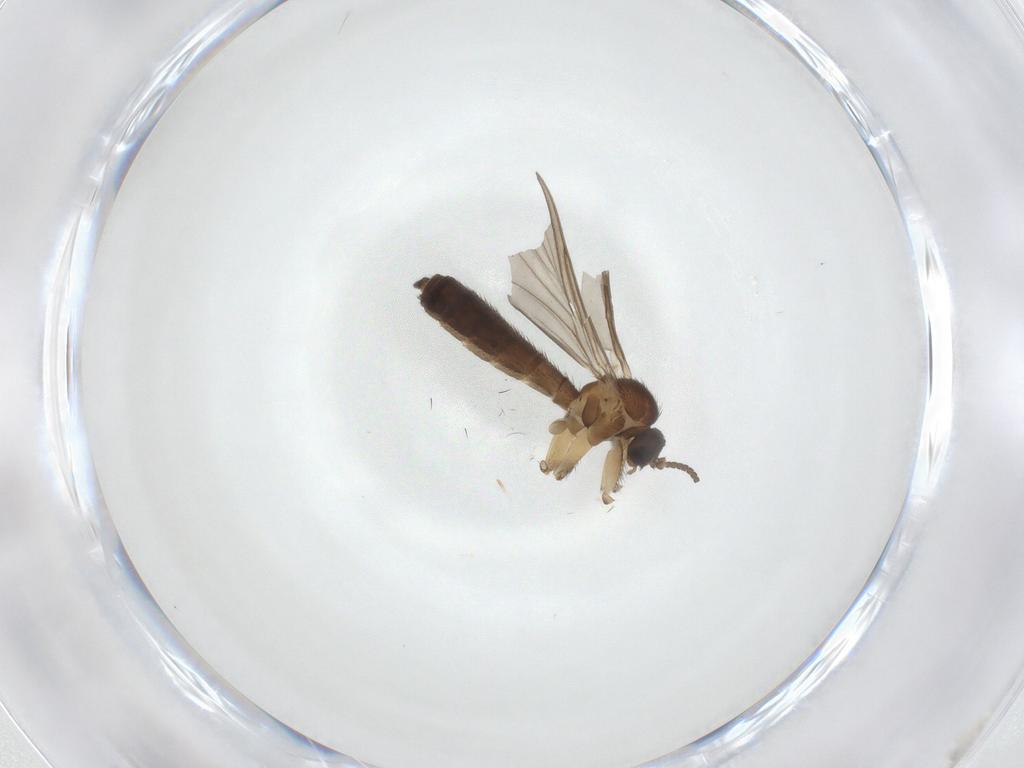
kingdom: Animalia
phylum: Arthropoda
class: Insecta
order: Diptera
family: Keroplatidae
